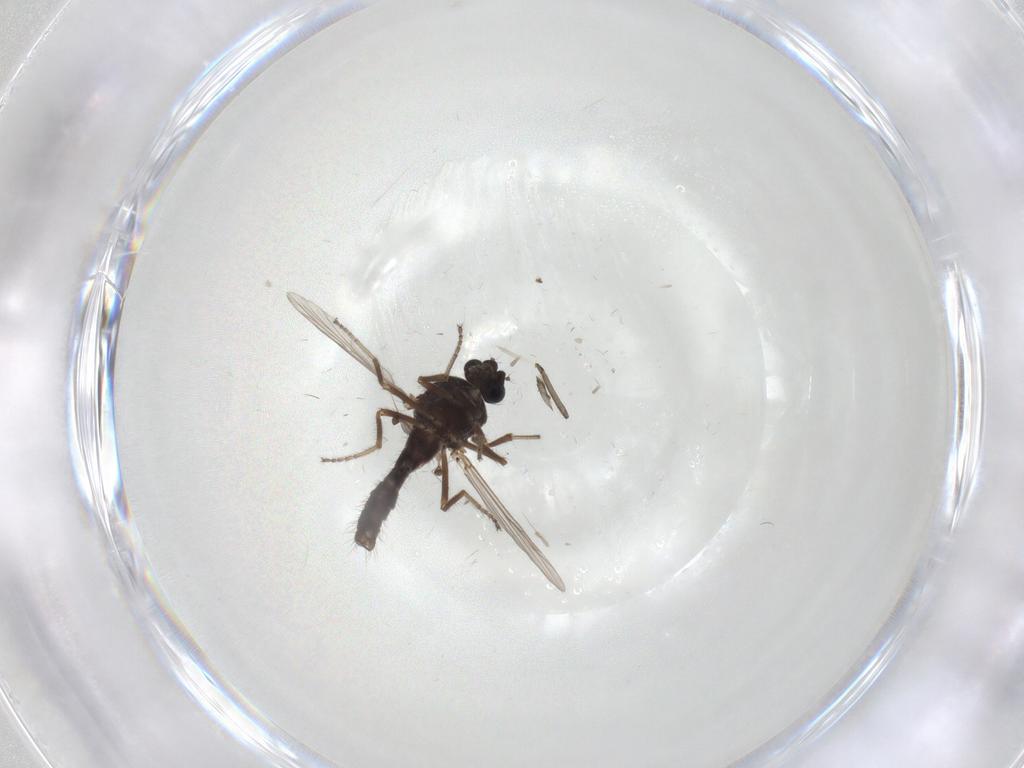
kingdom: Animalia
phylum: Arthropoda
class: Insecta
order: Diptera
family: Ceratopogonidae
